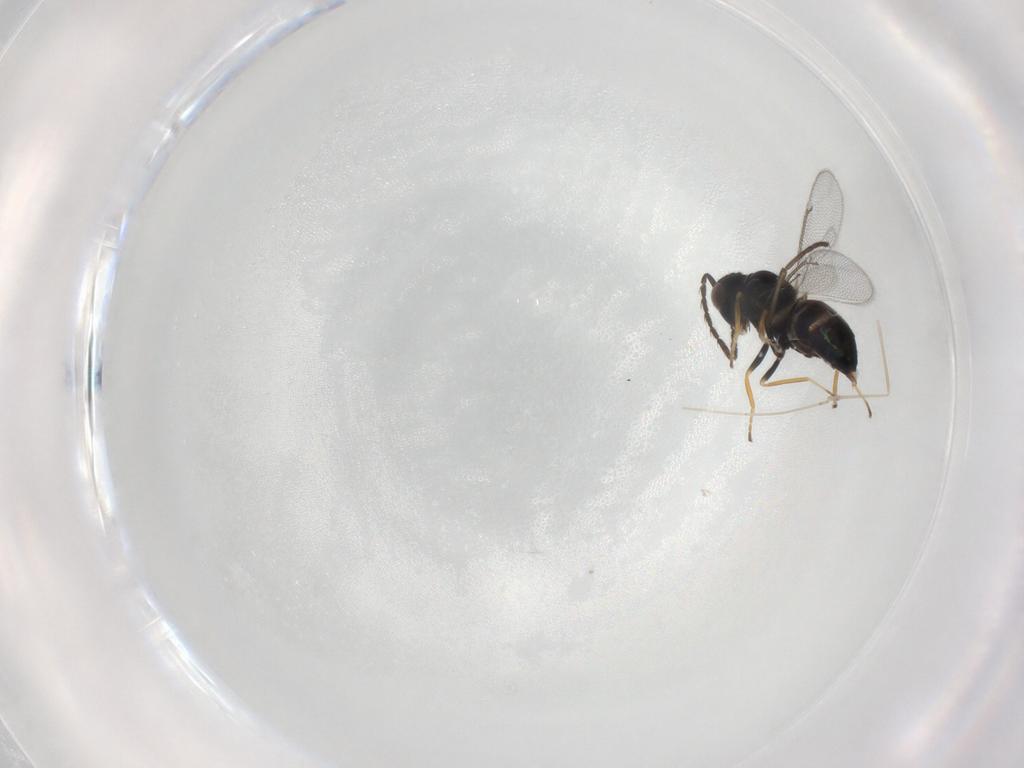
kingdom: Animalia
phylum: Arthropoda
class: Insecta
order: Hymenoptera
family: Eulophidae
